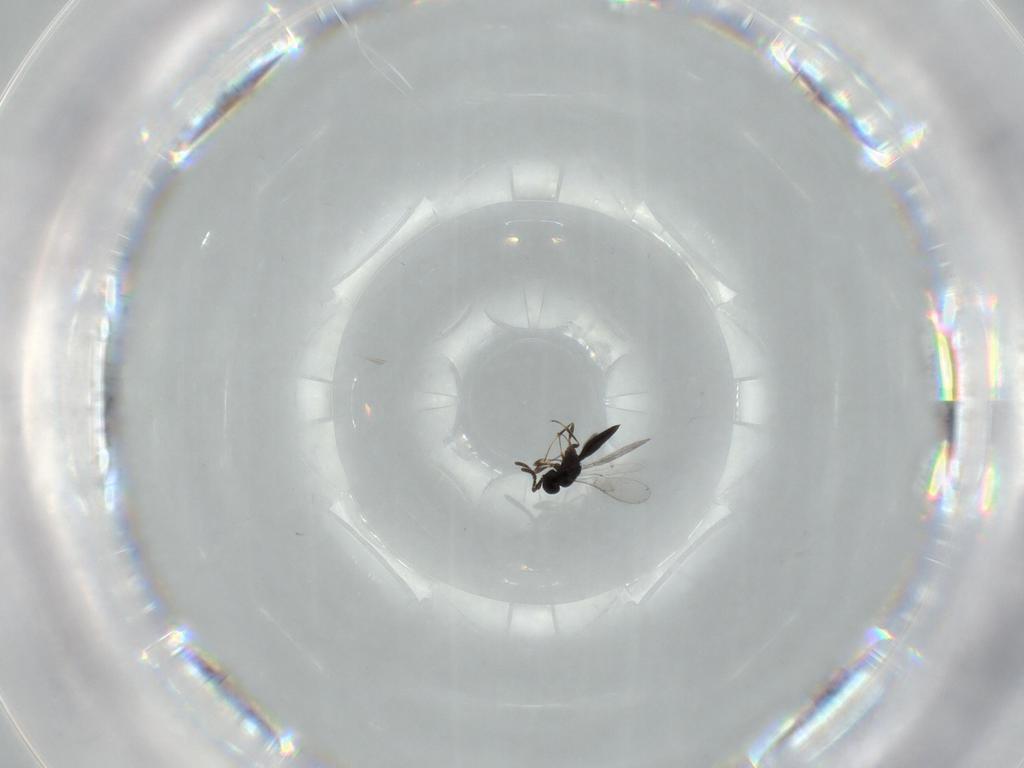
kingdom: Animalia
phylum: Arthropoda
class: Insecta
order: Hymenoptera
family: Scelionidae
